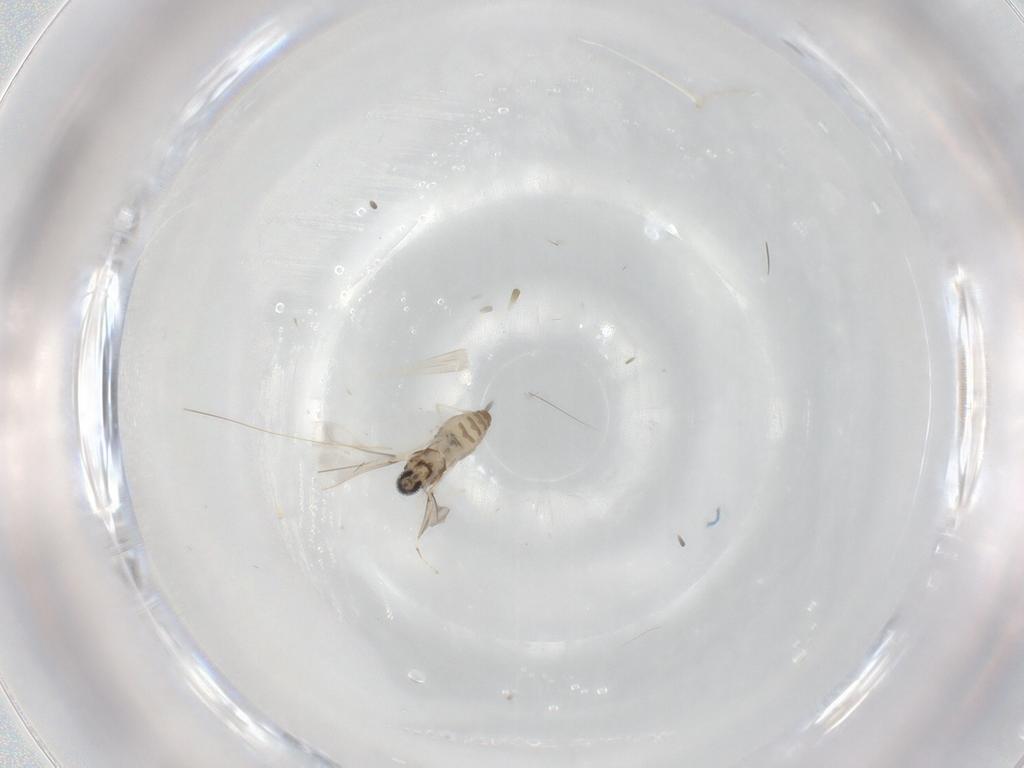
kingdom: Animalia
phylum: Arthropoda
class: Insecta
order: Diptera
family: Cecidomyiidae
